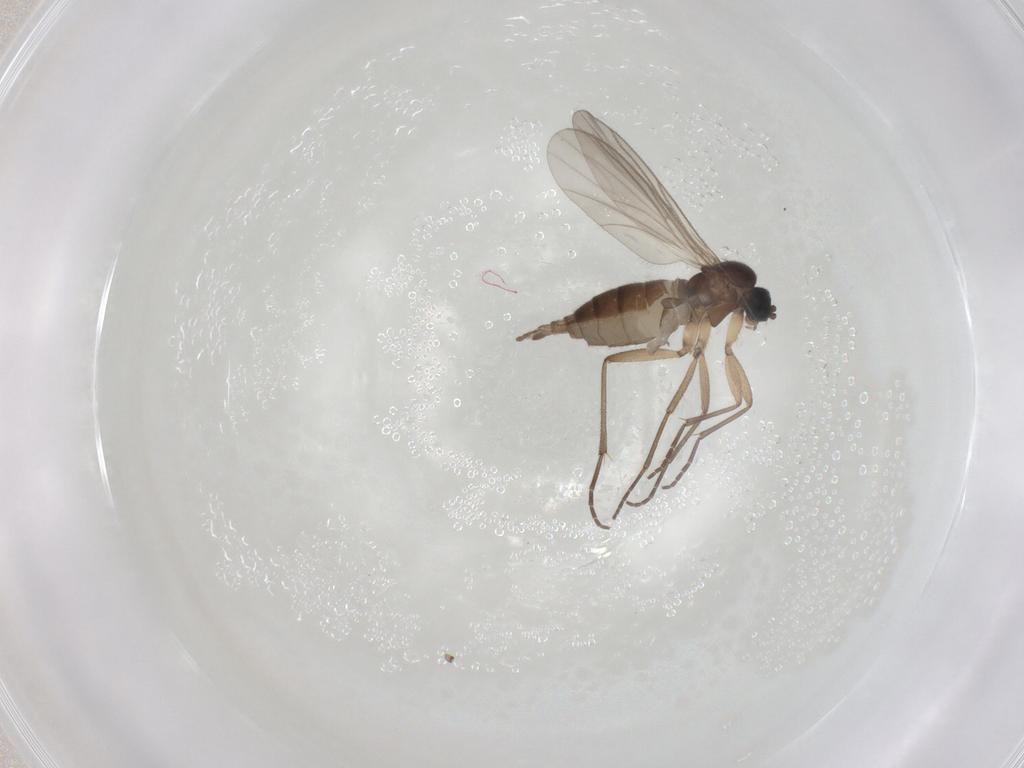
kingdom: Animalia
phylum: Arthropoda
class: Insecta
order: Diptera
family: Sciaridae
